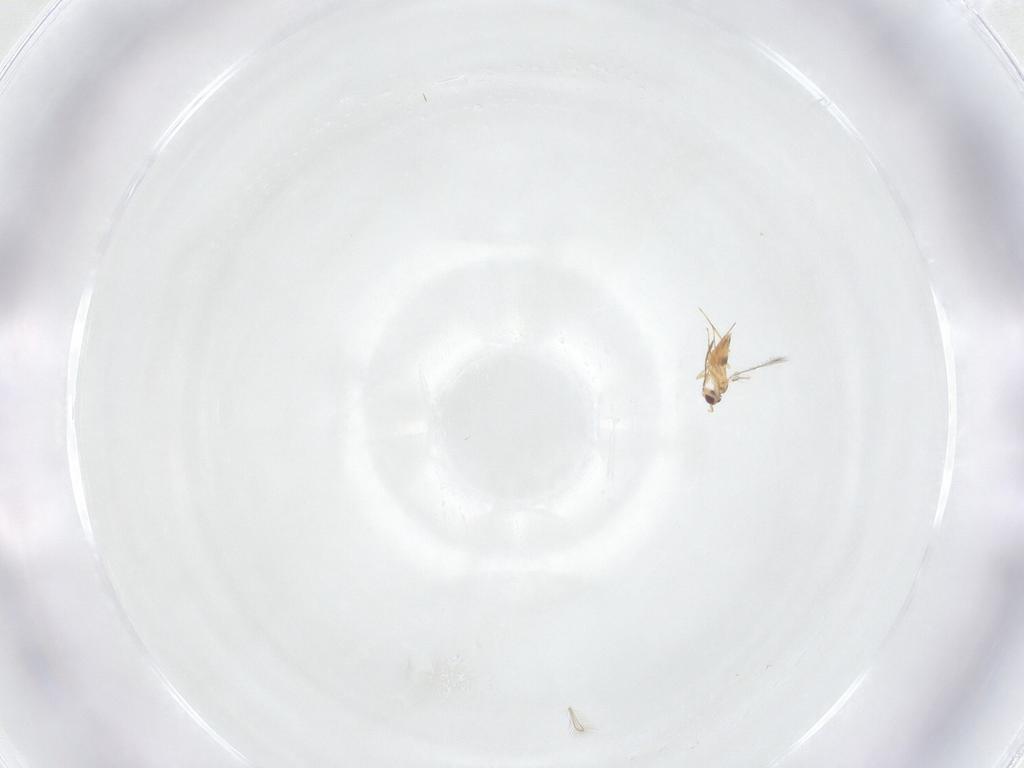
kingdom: Animalia
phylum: Arthropoda
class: Insecta
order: Hymenoptera
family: Mymaridae
